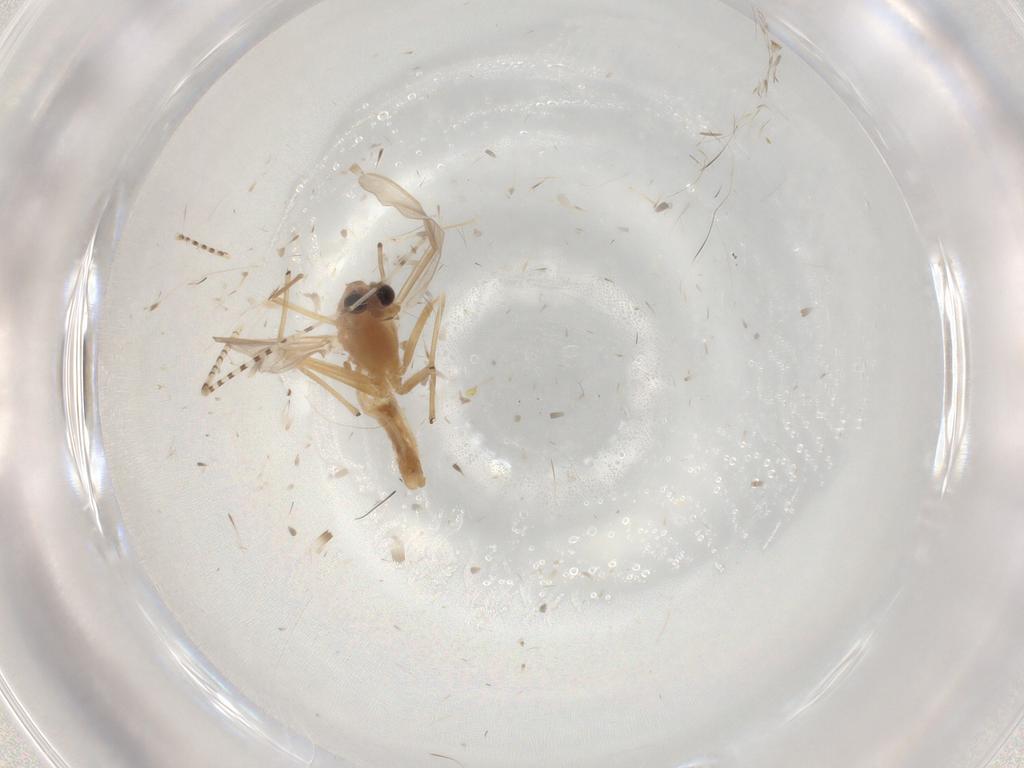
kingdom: Animalia
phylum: Arthropoda
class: Insecta
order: Diptera
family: Chironomidae
